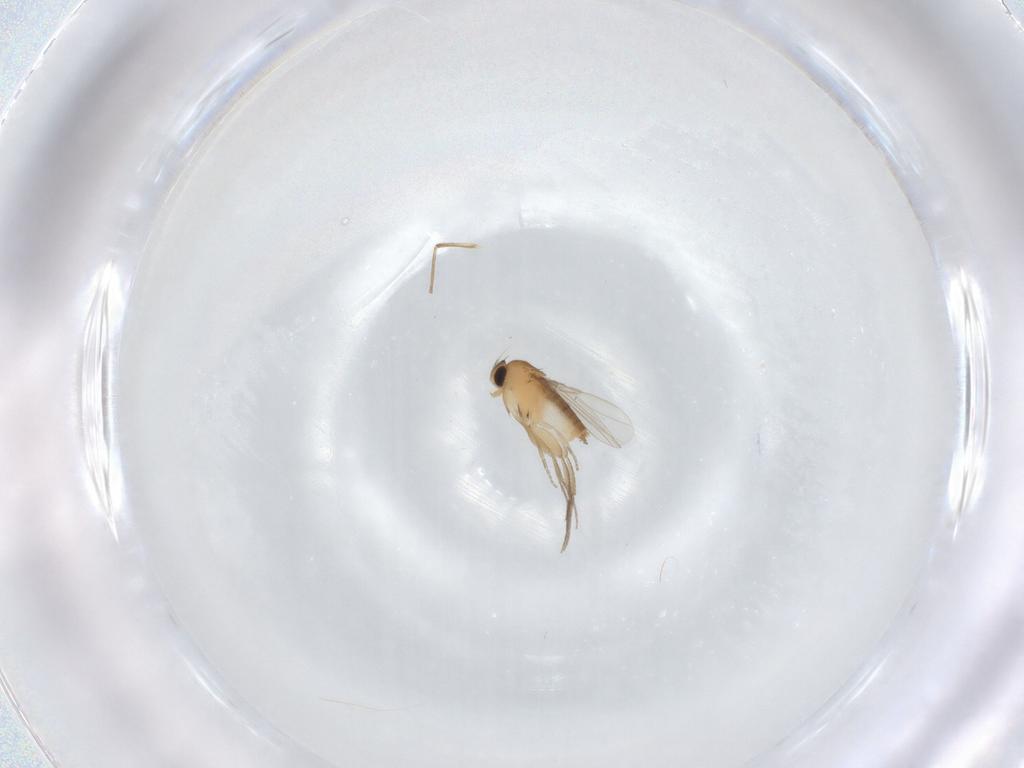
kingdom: Animalia
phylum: Arthropoda
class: Insecta
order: Diptera
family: Phoridae
